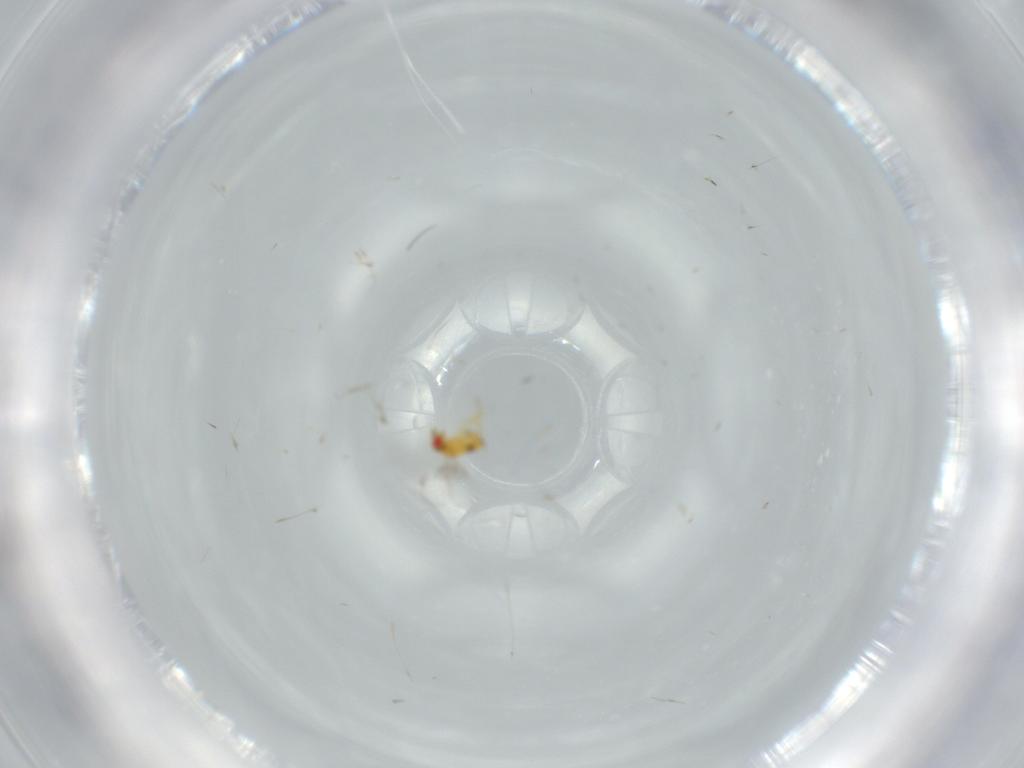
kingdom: Animalia
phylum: Arthropoda
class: Insecta
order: Hymenoptera
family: Trichogrammatidae
